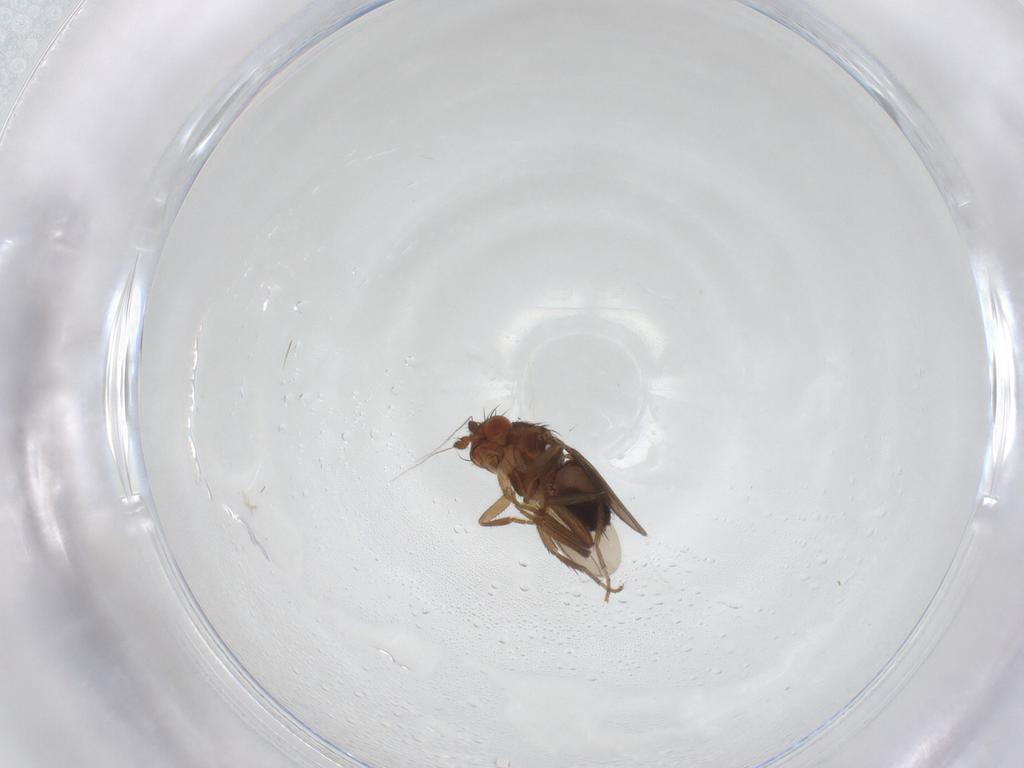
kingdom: Animalia
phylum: Arthropoda
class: Insecta
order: Diptera
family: Sphaeroceridae
